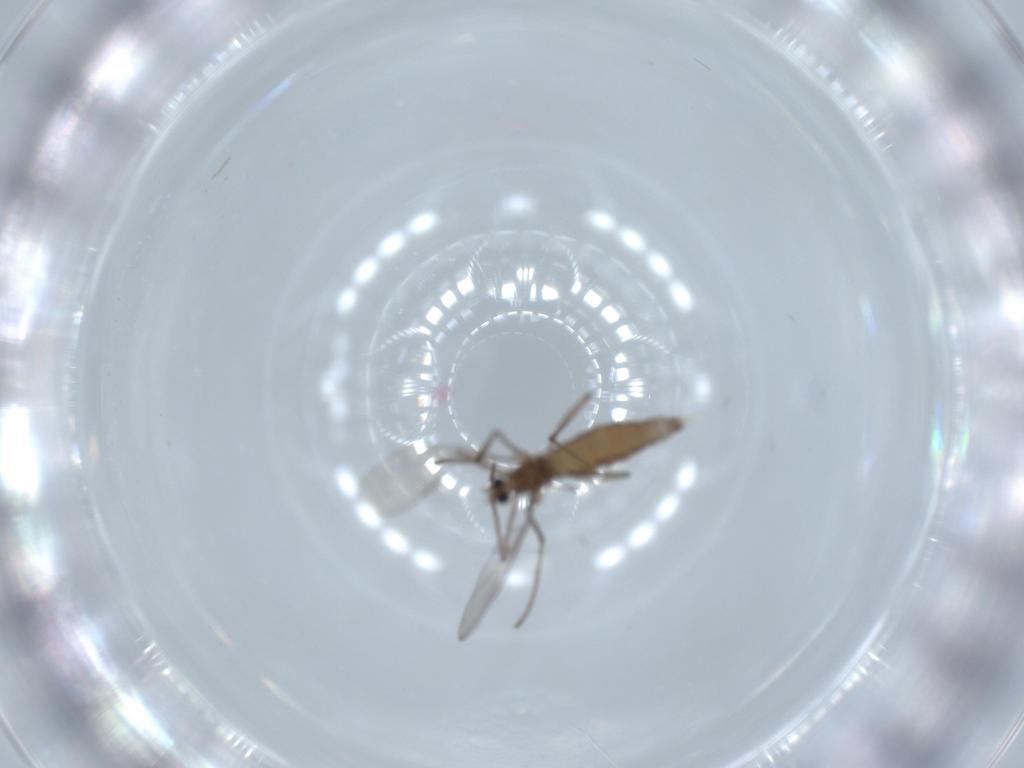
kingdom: Animalia
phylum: Arthropoda
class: Insecta
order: Diptera
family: Cecidomyiidae
